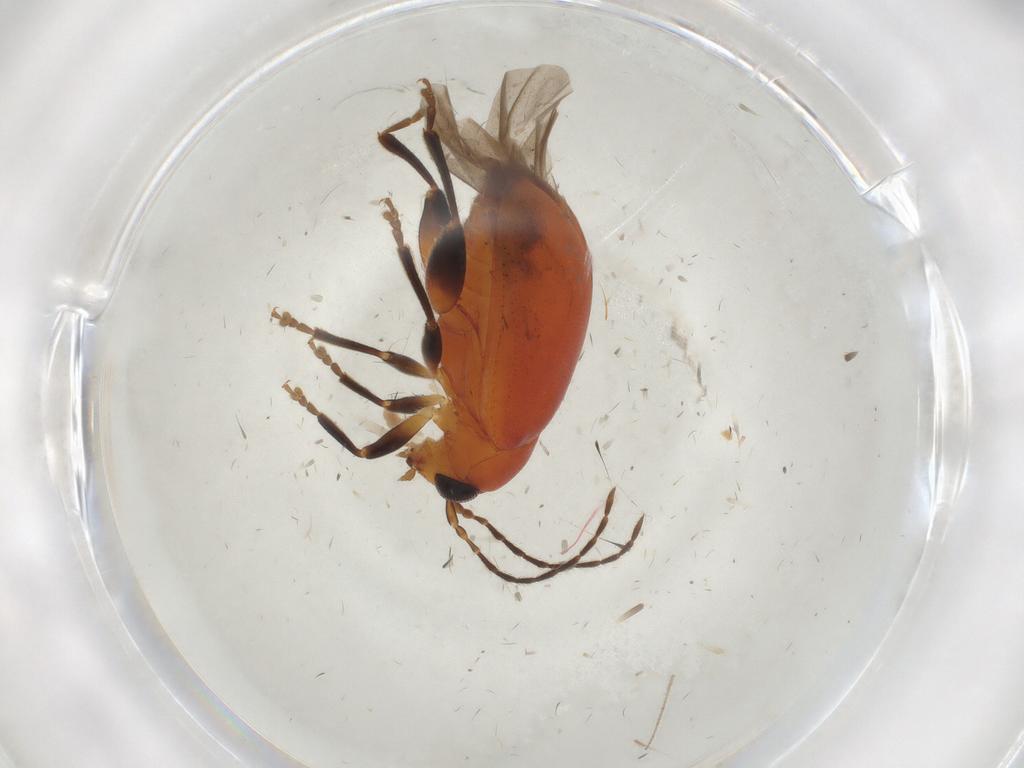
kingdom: Animalia
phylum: Arthropoda
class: Insecta
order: Coleoptera
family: Chrysomelidae
